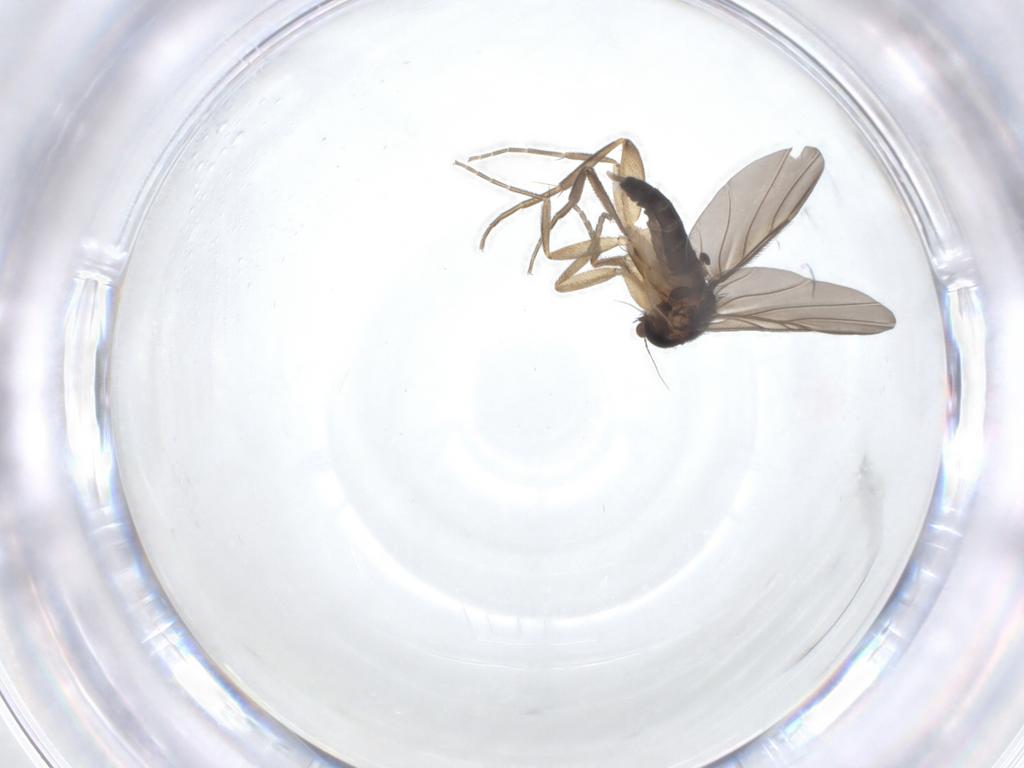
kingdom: Animalia
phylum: Arthropoda
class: Insecta
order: Diptera
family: Phoridae
